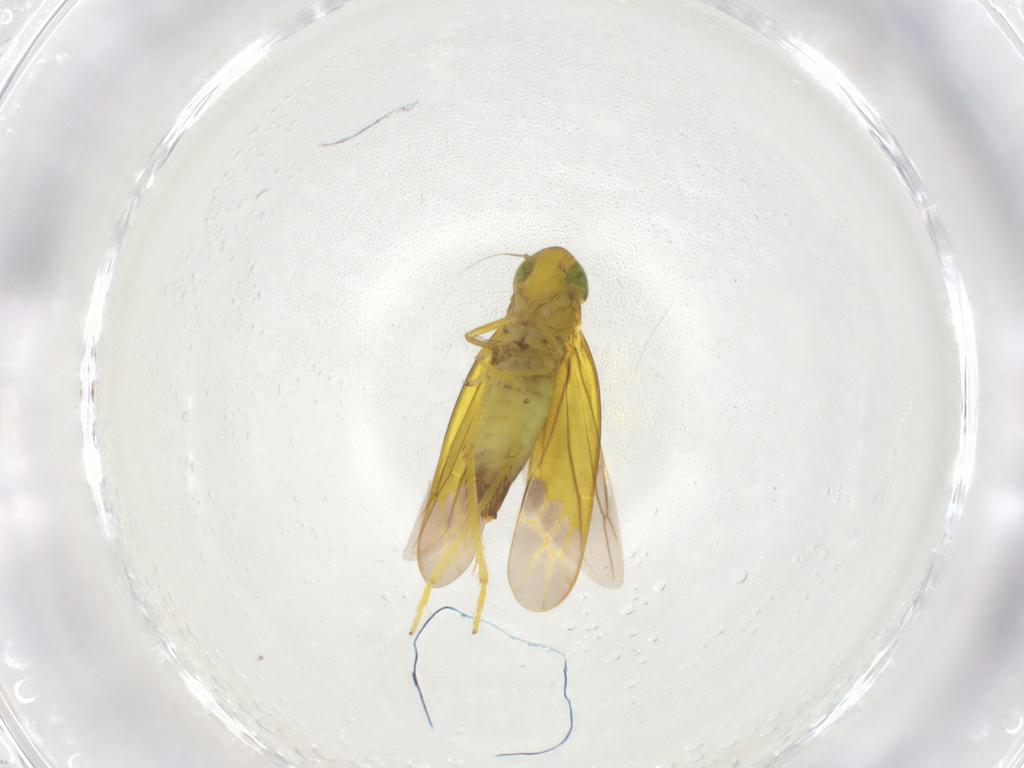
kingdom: Animalia
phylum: Arthropoda
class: Insecta
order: Hemiptera
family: Cicadellidae
